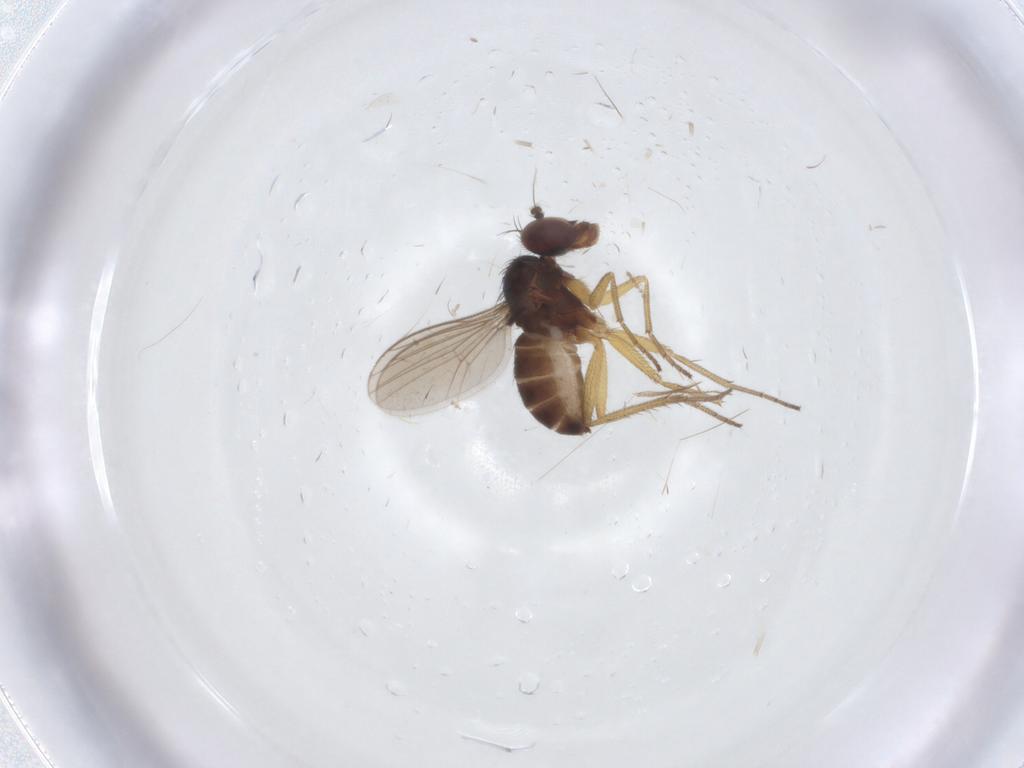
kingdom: Animalia
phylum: Arthropoda
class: Insecta
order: Diptera
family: Dolichopodidae
